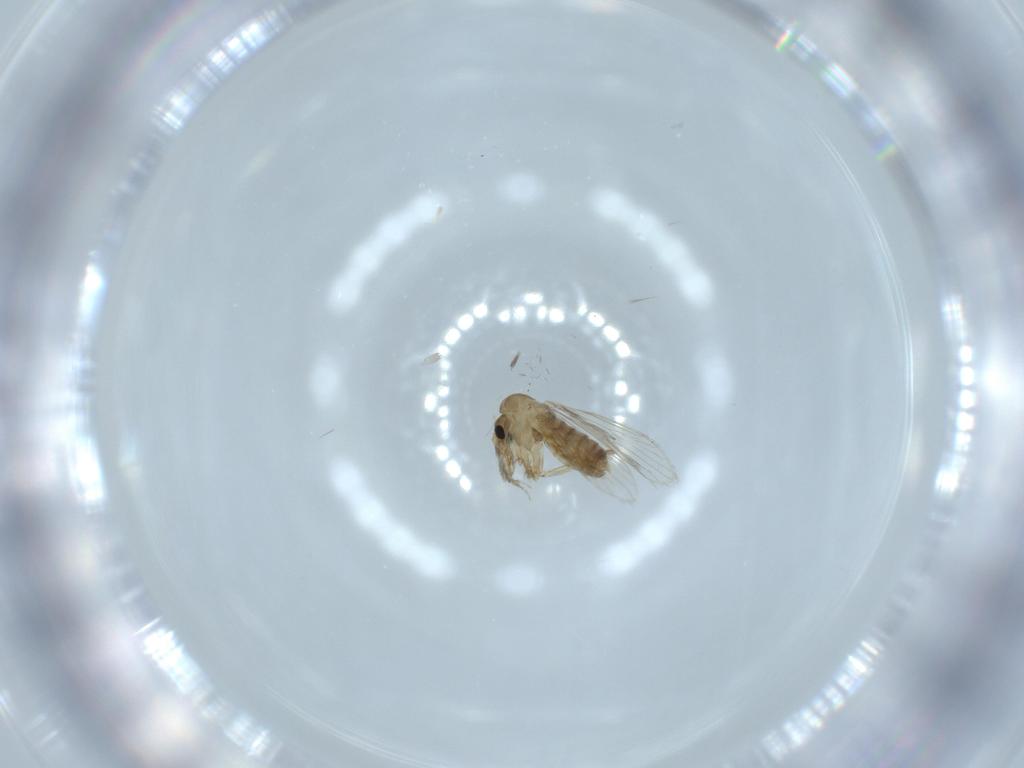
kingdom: Animalia
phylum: Arthropoda
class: Insecta
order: Diptera
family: Psychodidae
